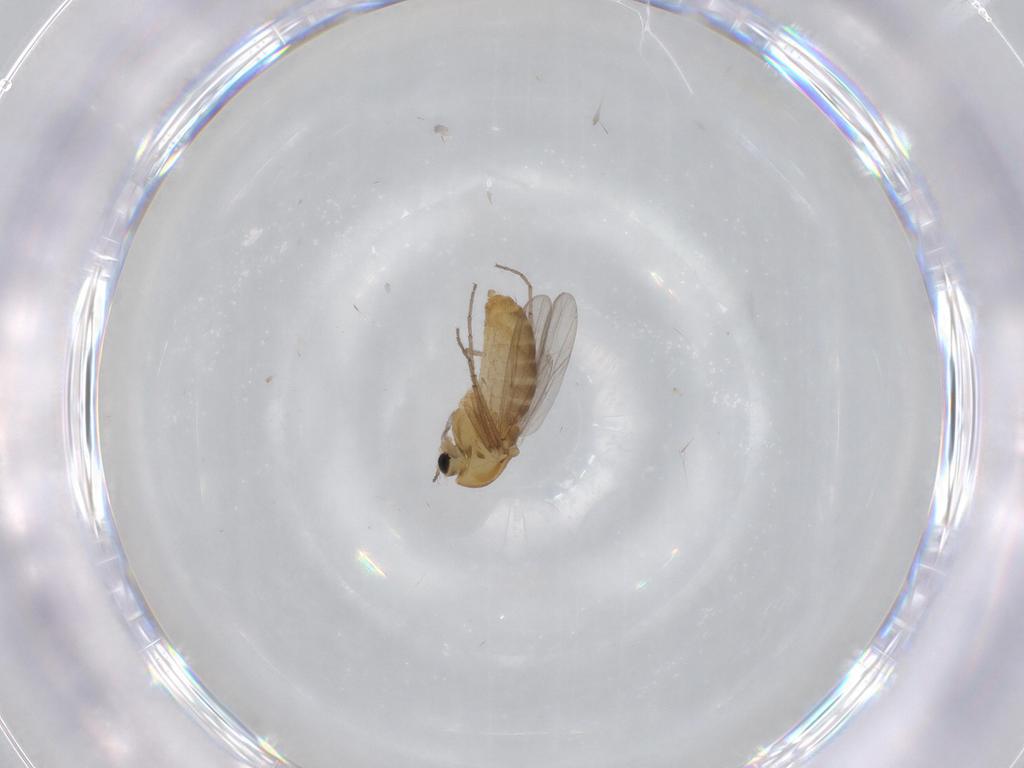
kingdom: Animalia
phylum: Arthropoda
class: Insecta
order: Diptera
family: Chironomidae
